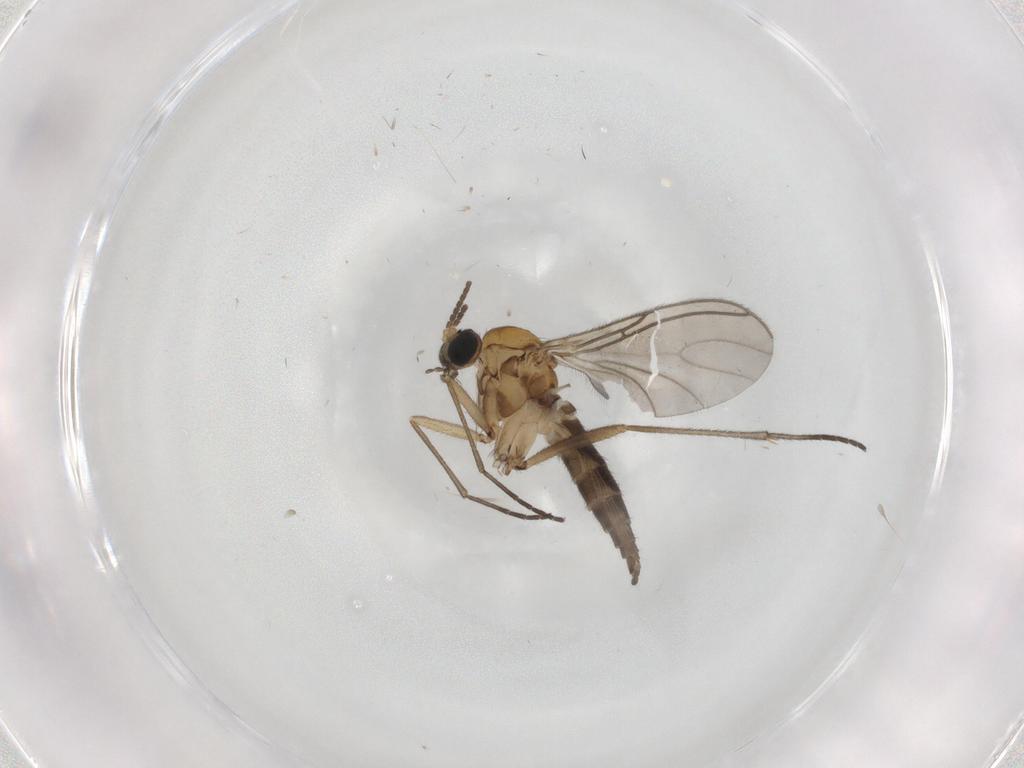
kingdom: Animalia
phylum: Arthropoda
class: Insecta
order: Diptera
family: Sciaridae
